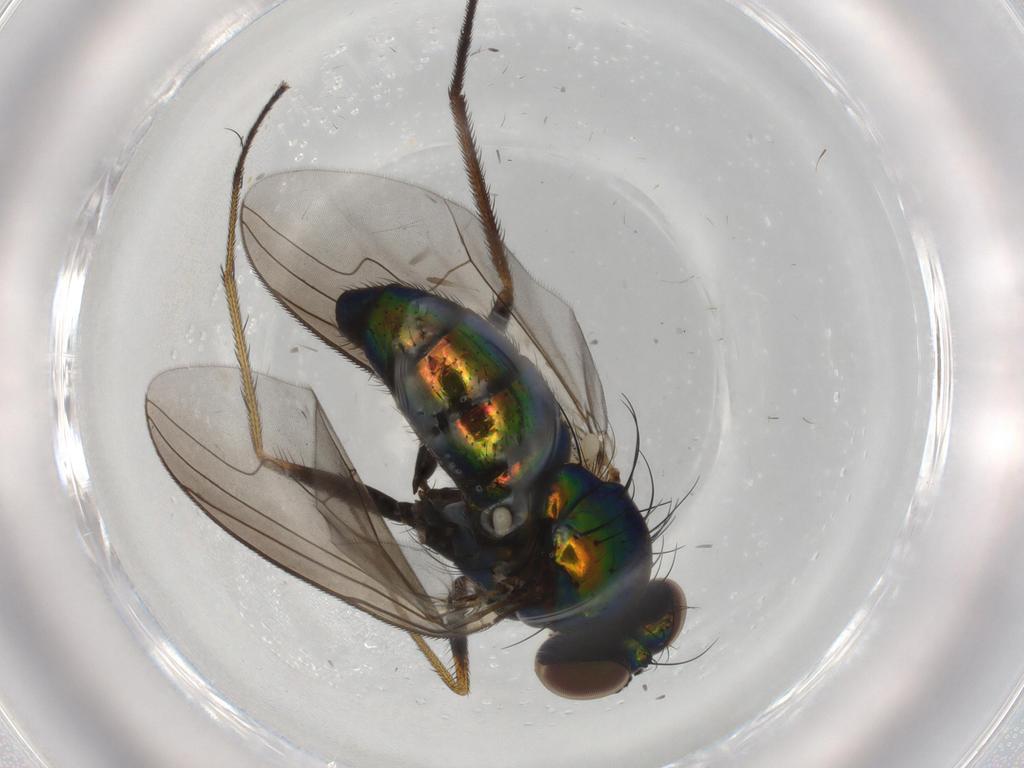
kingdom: Animalia
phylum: Arthropoda
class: Insecta
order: Diptera
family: Dolichopodidae
